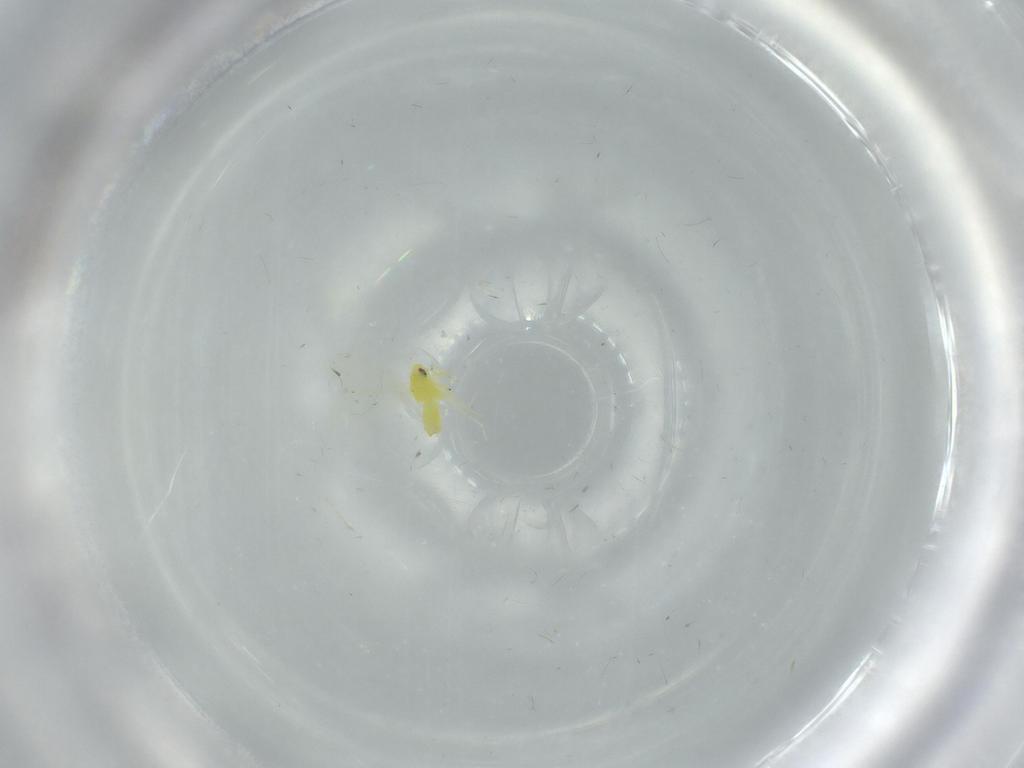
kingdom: Animalia
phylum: Arthropoda
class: Insecta
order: Hemiptera
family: Aleyrodidae
